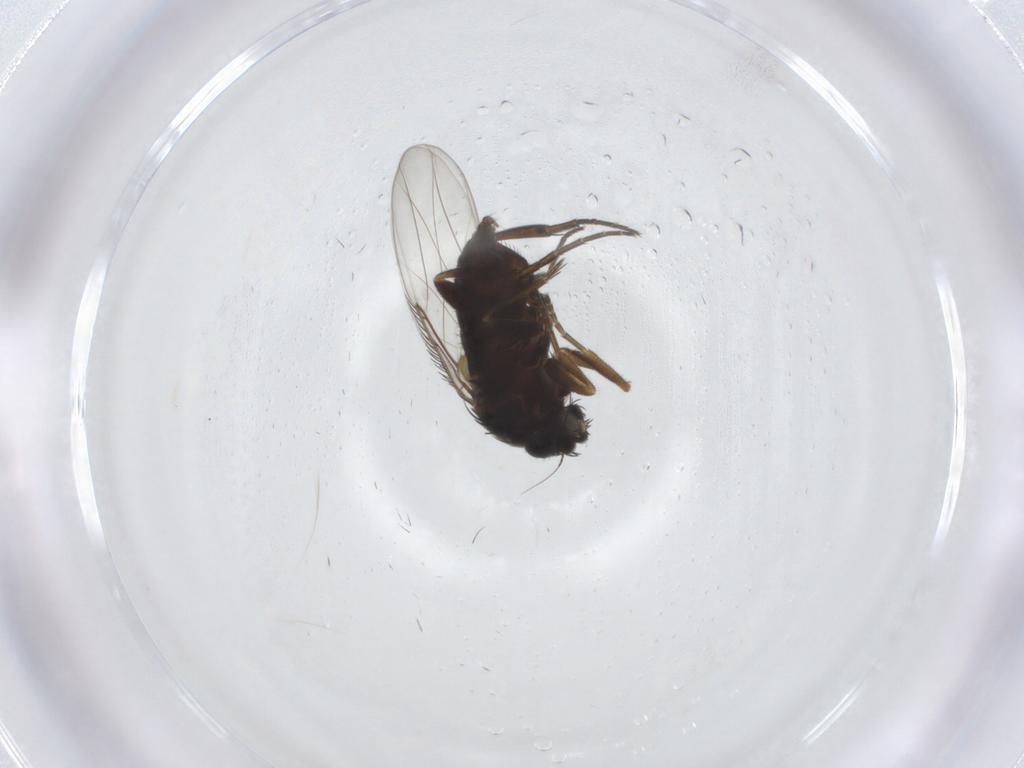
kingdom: Animalia
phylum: Arthropoda
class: Insecta
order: Diptera
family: Phoridae
